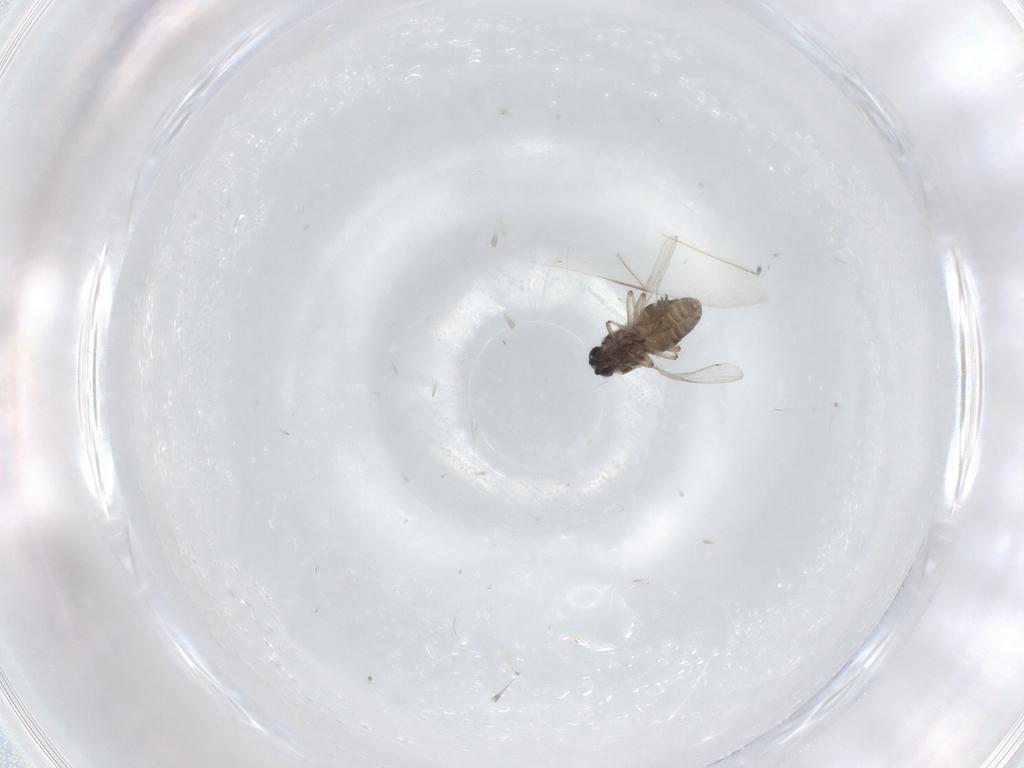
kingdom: Animalia
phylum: Arthropoda
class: Insecta
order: Diptera
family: Ceratopogonidae
